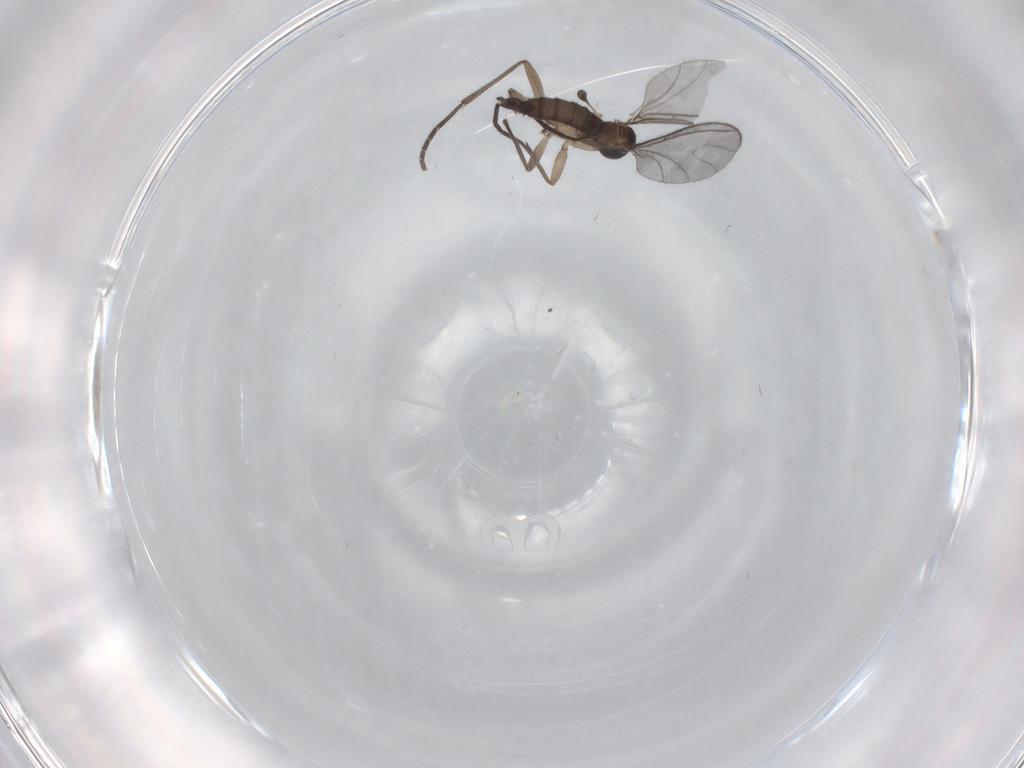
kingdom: Animalia
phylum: Arthropoda
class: Insecta
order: Diptera
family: Sciaridae
